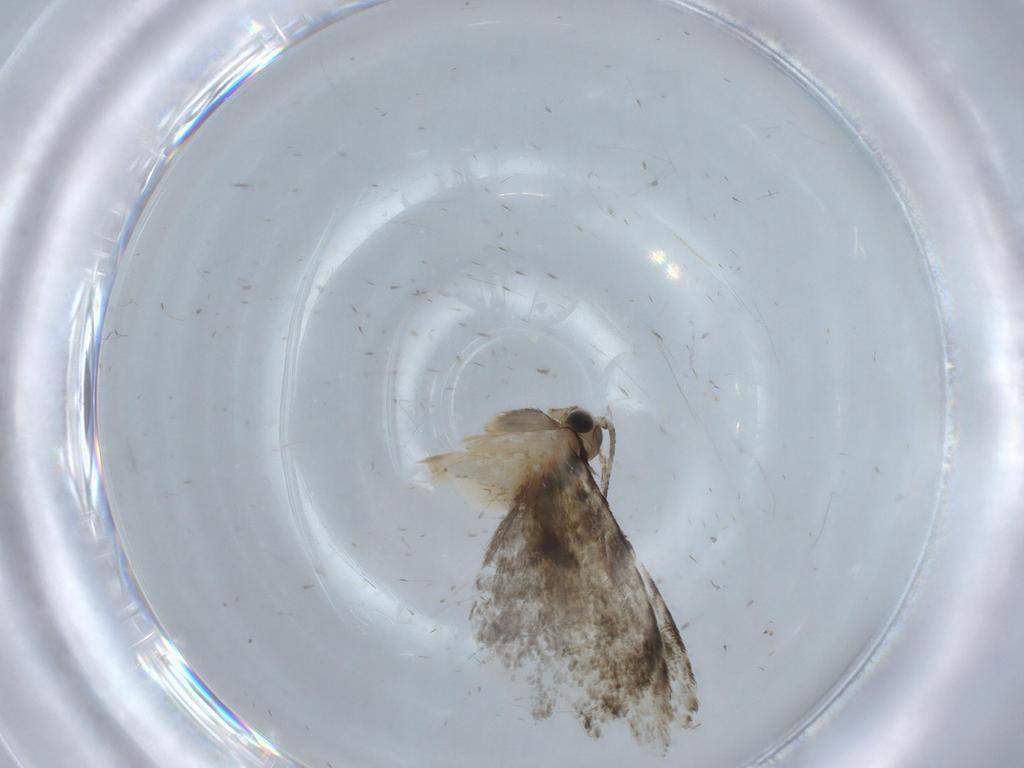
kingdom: Animalia
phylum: Arthropoda
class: Insecta
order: Lepidoptera
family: Tineidae
